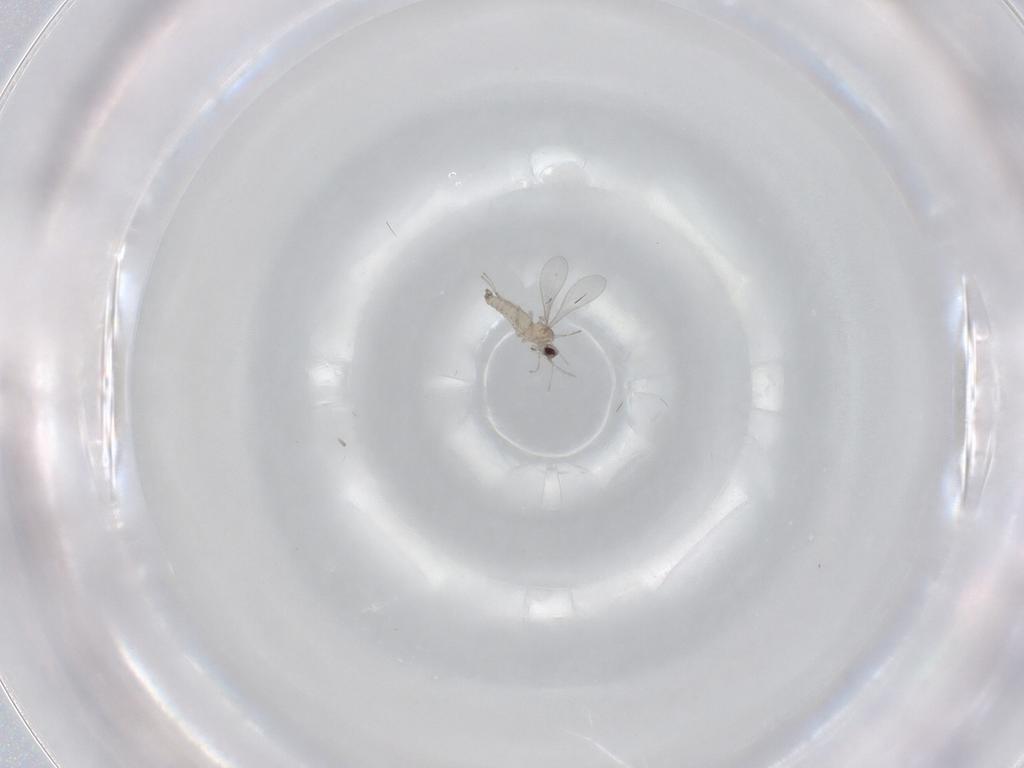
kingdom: Animalia
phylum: Arthropoda
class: Insecta
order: Diptera
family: Cecidomyiidae
